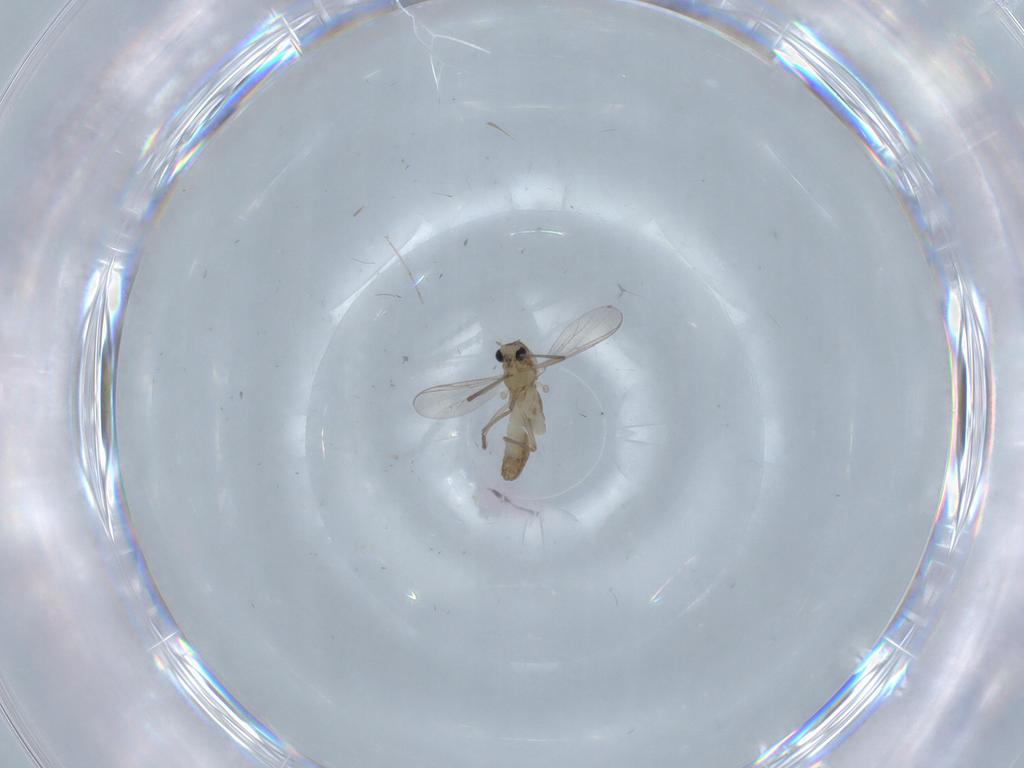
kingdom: Animalia
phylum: Arthropoda
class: Insecta
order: Diptera
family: Chironomidae
